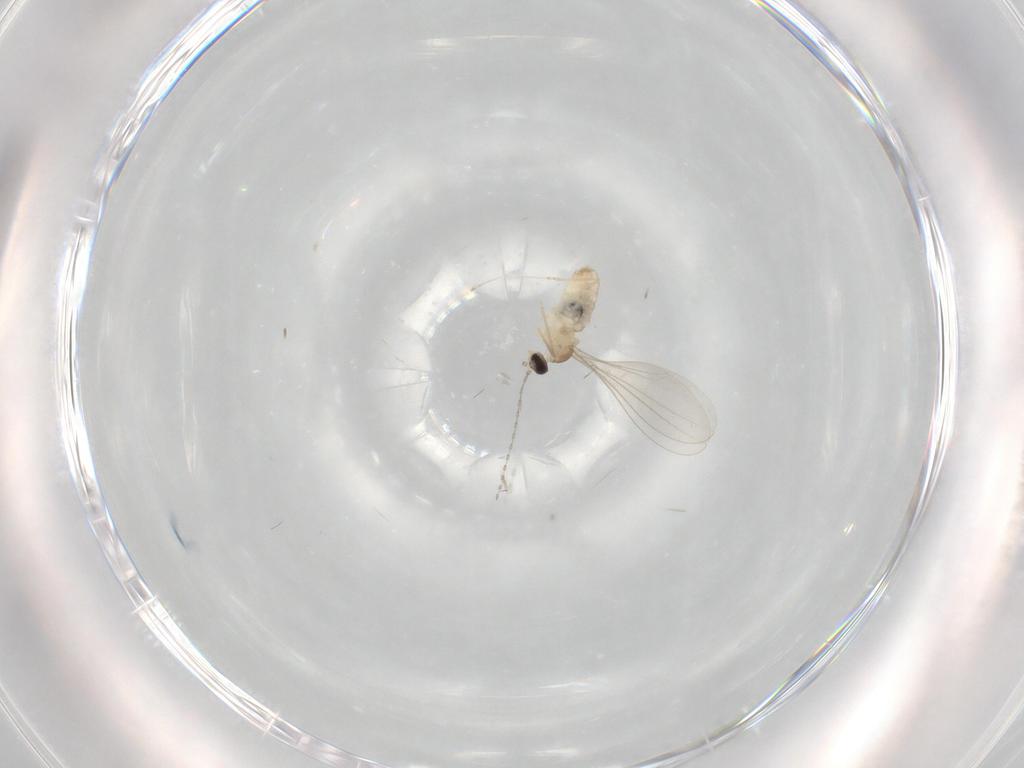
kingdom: Animalia
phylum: Arthropoda
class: Insecta
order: Diptera
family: Cecidomyiidae
